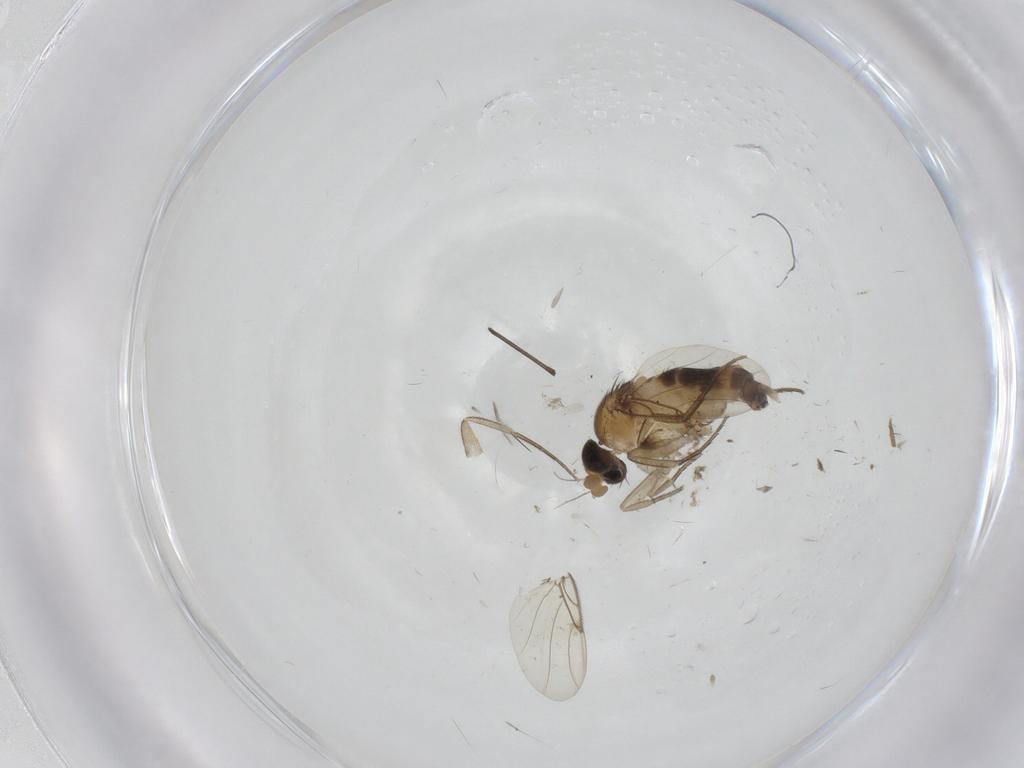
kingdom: Animalia
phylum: Arthropoda
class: Insecta
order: Diptera
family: Phoridae
